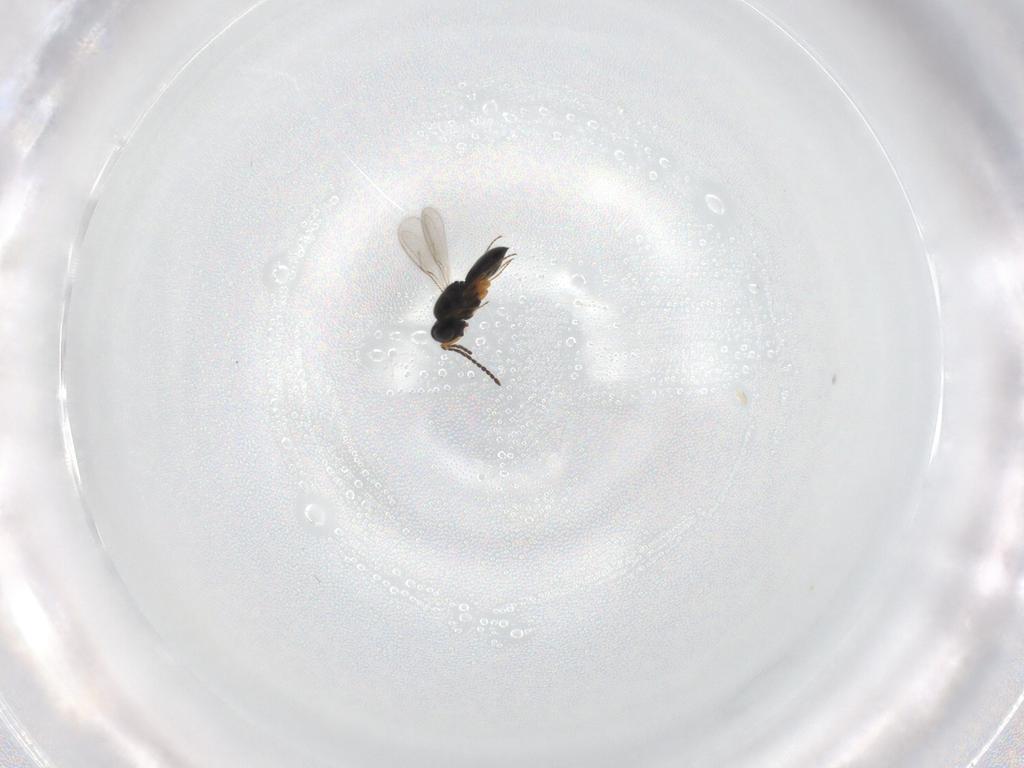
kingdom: Animalia
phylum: Arthropoda
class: Insecta
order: Hymenoptera
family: Scelionidae
